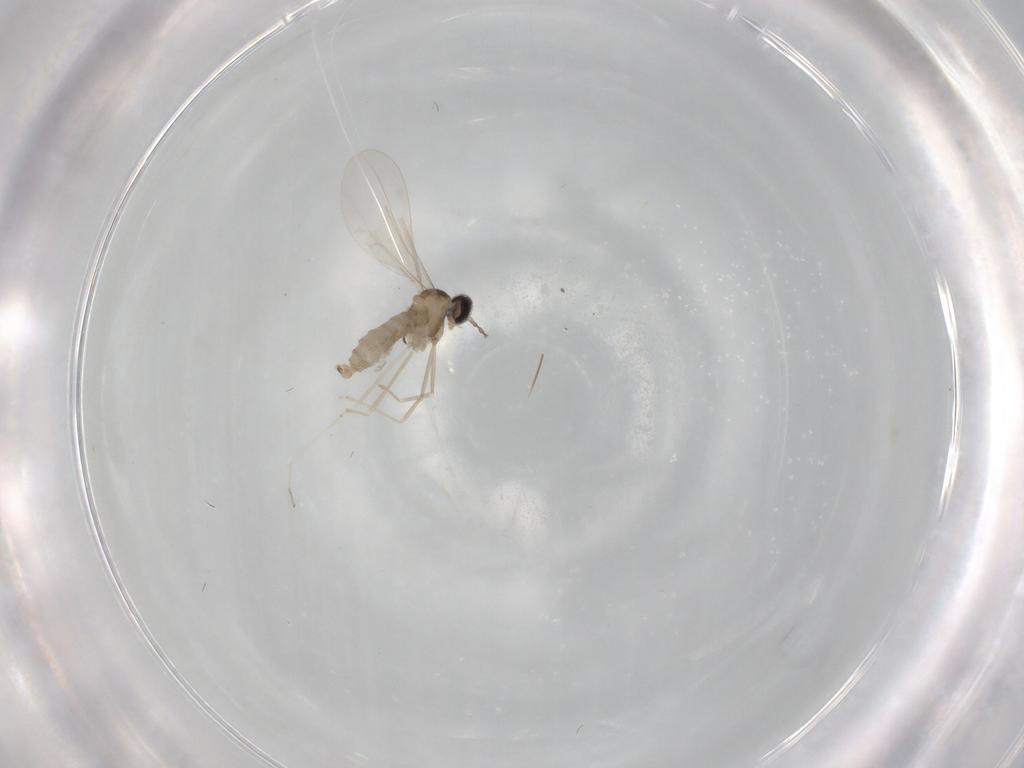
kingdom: Animalia
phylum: Arthropoda
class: Insecta
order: Diptera
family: Cecidomyiidae
